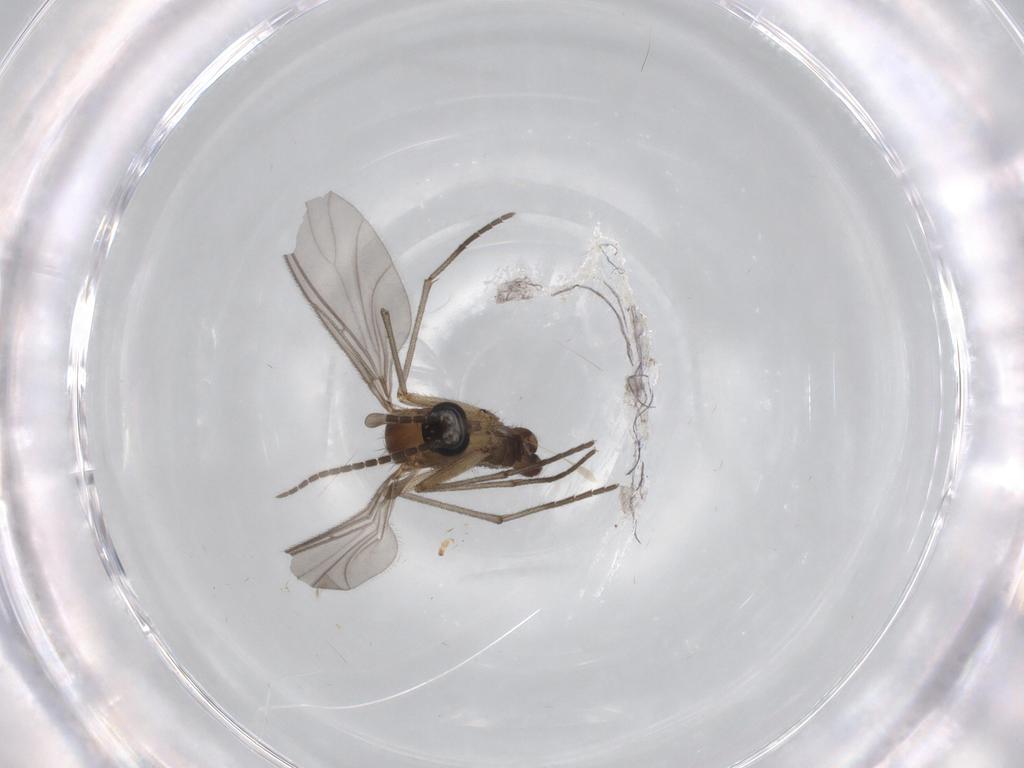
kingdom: Animalia
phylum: Arthropoda
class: Insecta
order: Diptera
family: Sciaridae
